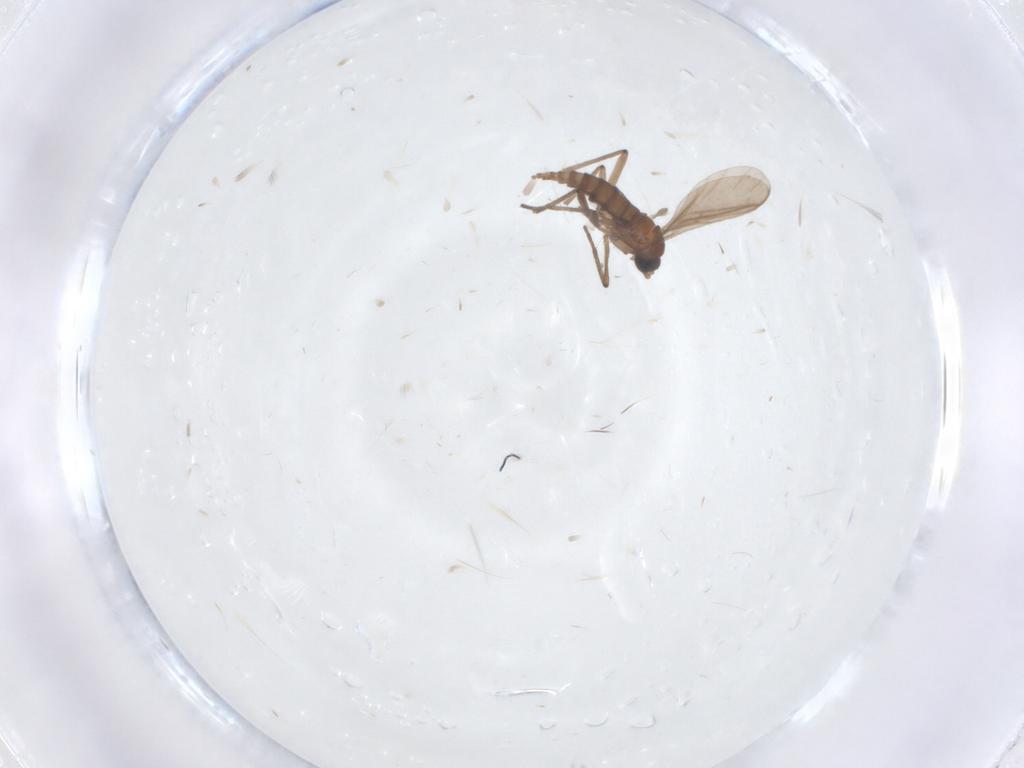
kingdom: Animalia
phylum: Arthropoda
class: Insecta
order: Diptera
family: Sciaridae
